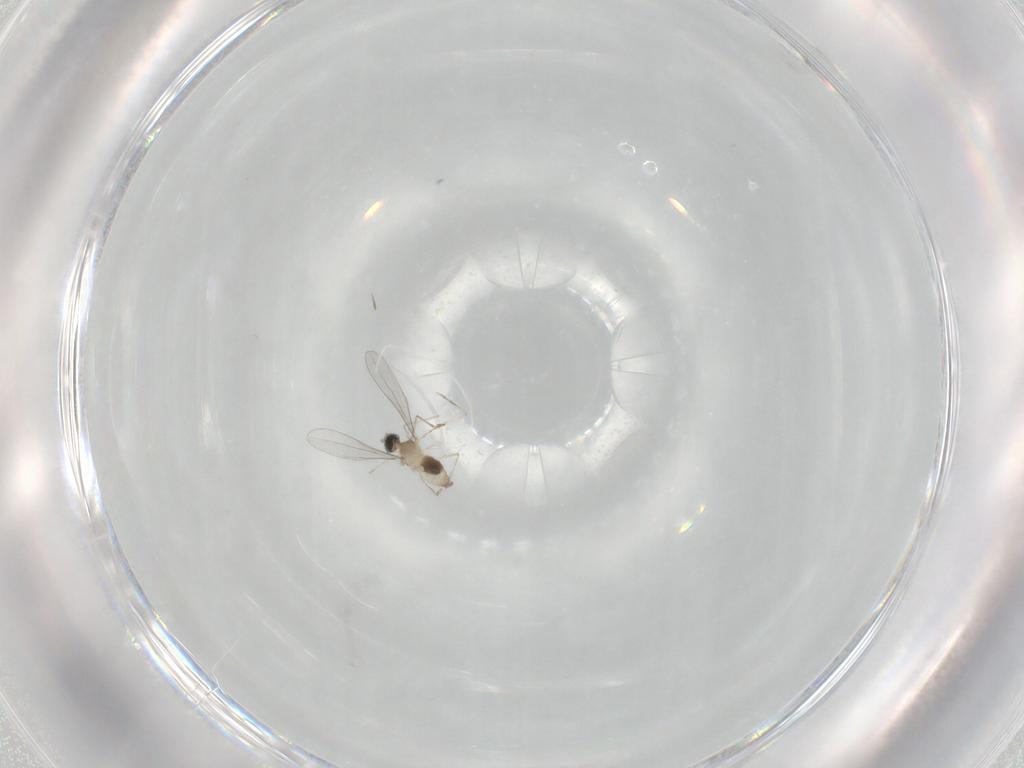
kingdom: Animalia
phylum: Arthropoda
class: Insecta
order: Diptera
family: Cecidomyiidae
